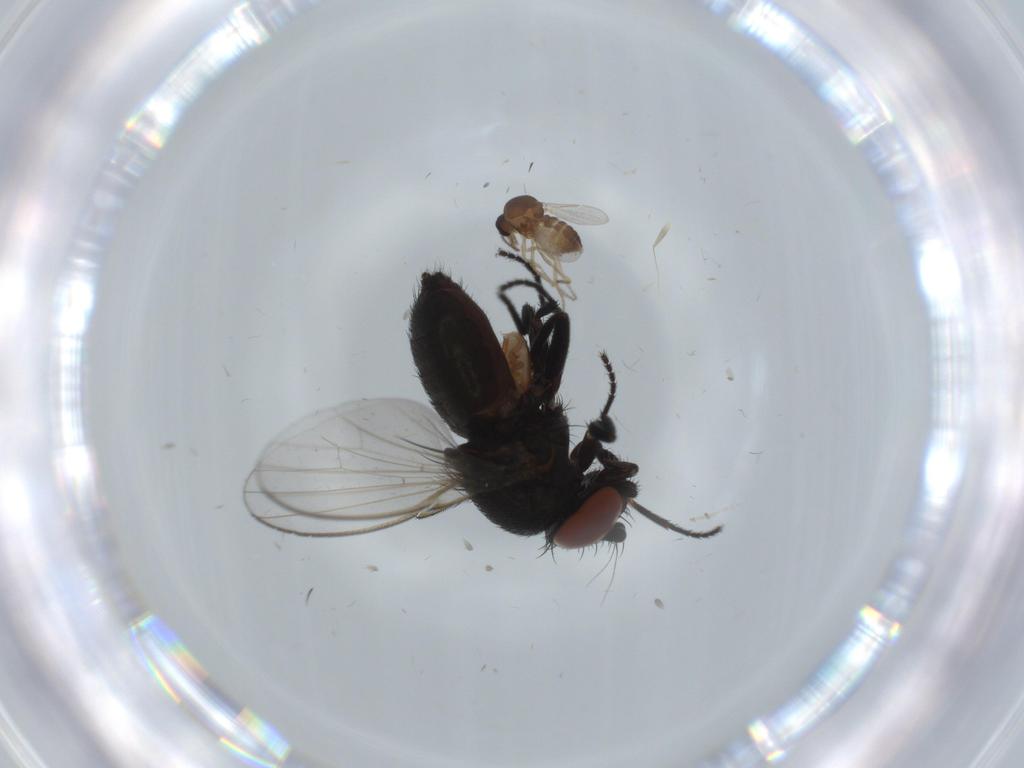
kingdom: Animalia
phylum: Arthropoda
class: Insecta
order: Diptera
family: Ceratopogonidae
